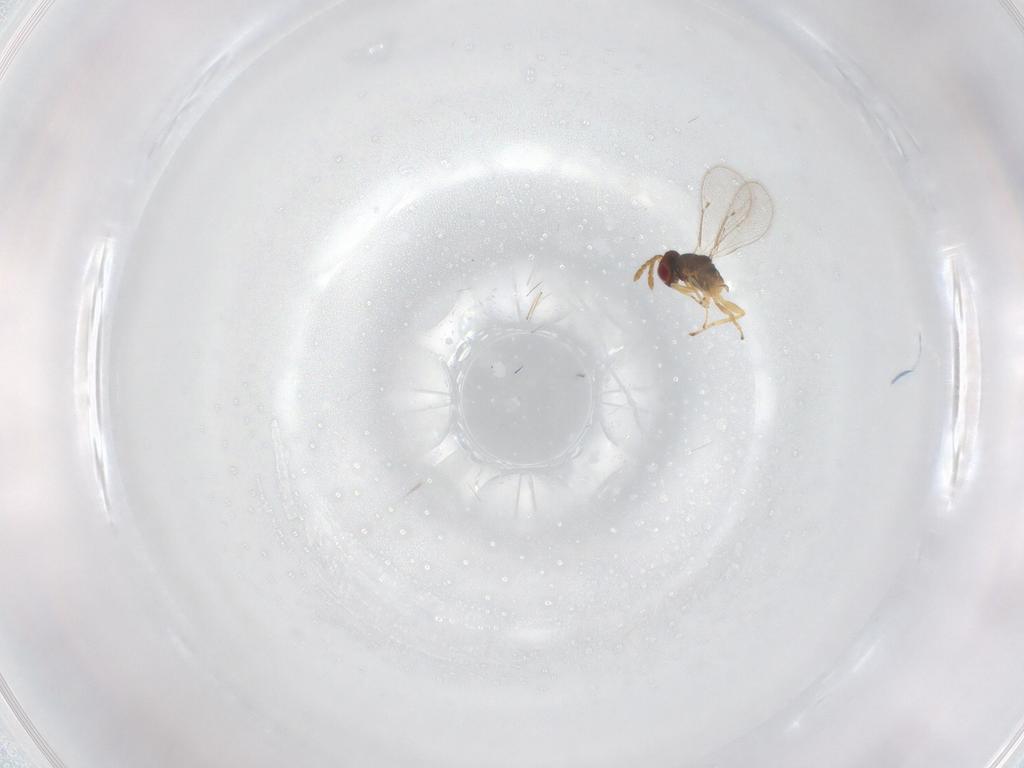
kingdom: Animalia
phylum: Arthropoda
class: Insecta
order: Hymenoptera
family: Eulophidae
